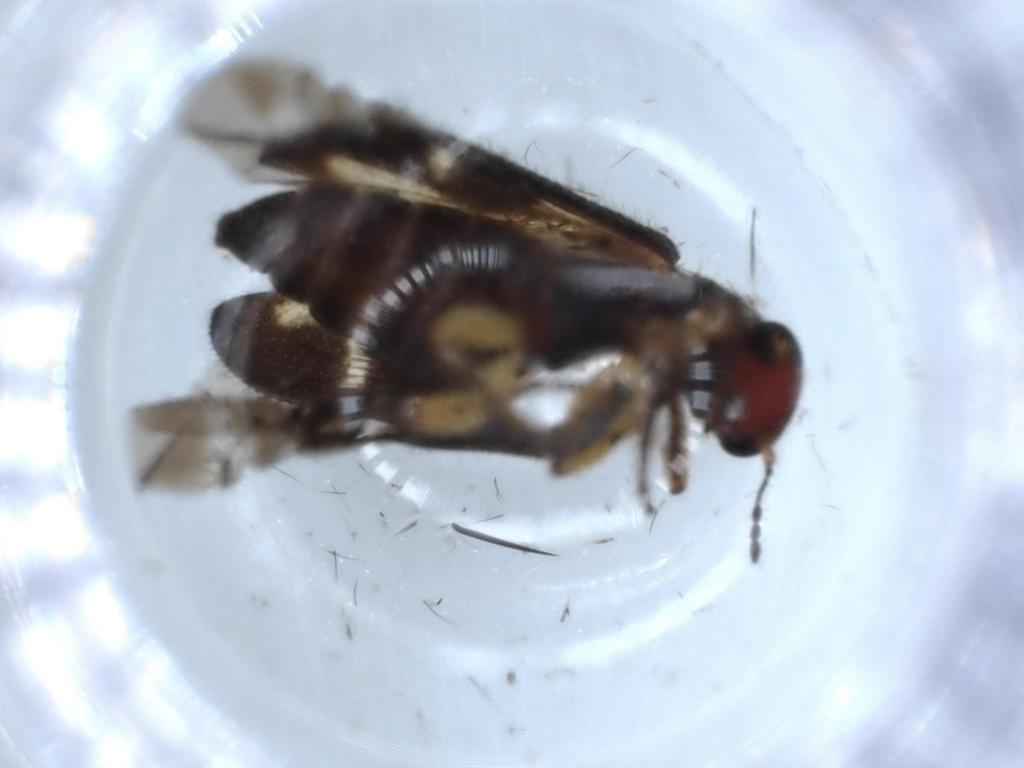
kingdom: Animalia
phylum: Arthropoda
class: Insecta
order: Coleoptera
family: Cleridae
